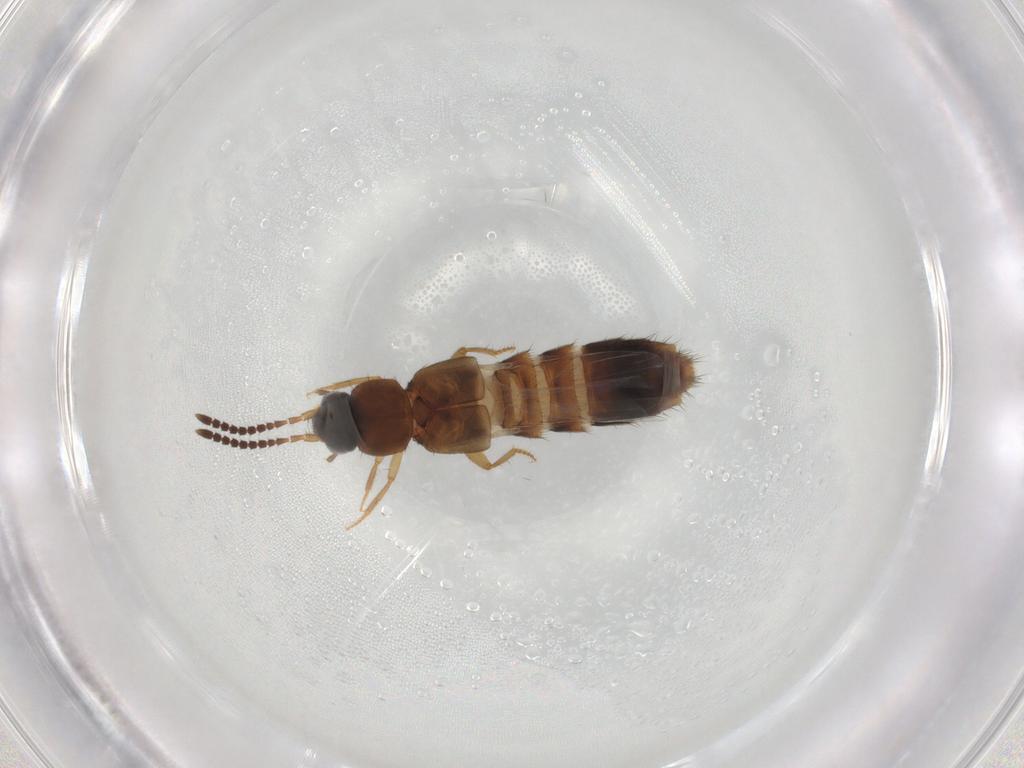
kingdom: Animalia
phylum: Arthropoda
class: Insecta
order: Coleoptera
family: Staphylinidae
